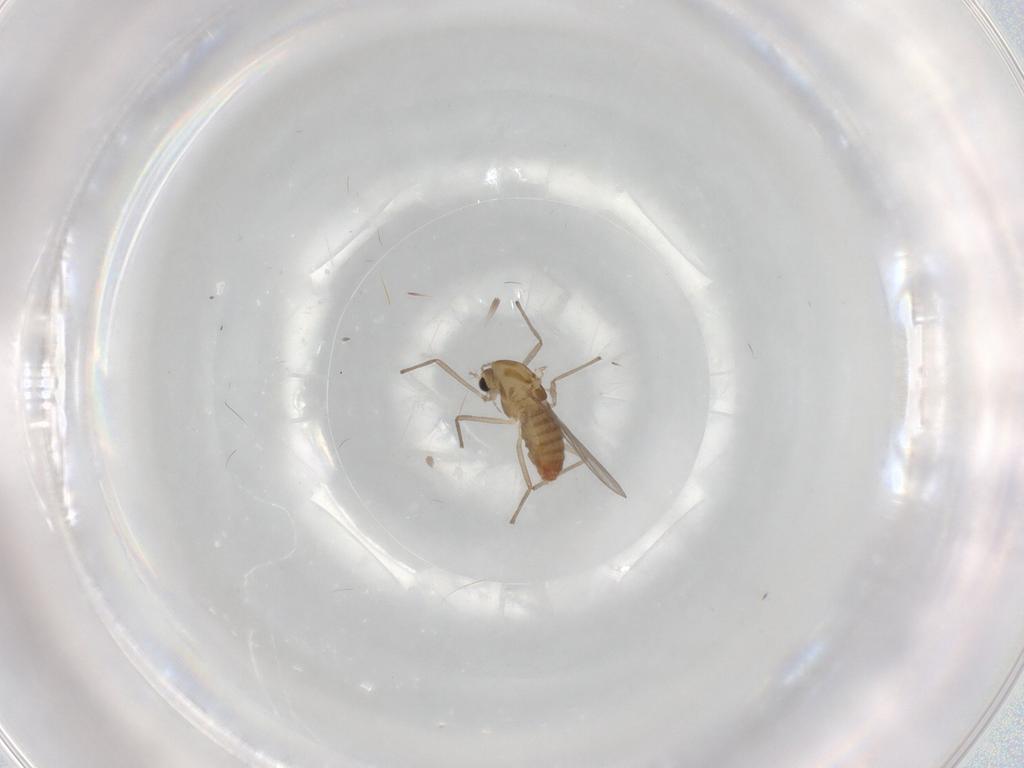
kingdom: Animalia
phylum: Arthropoda
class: Insecta
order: Diptera
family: Chironomidae
